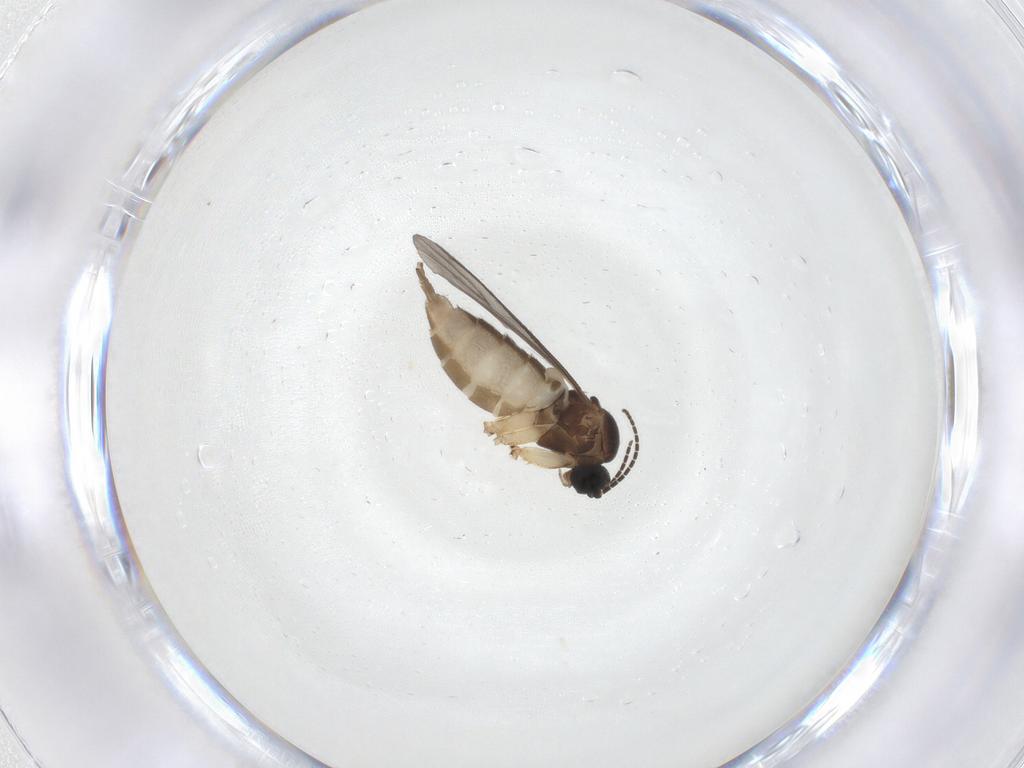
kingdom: Animalia
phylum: Arthropoda
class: Insecta
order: Diptera
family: Sciaridae
